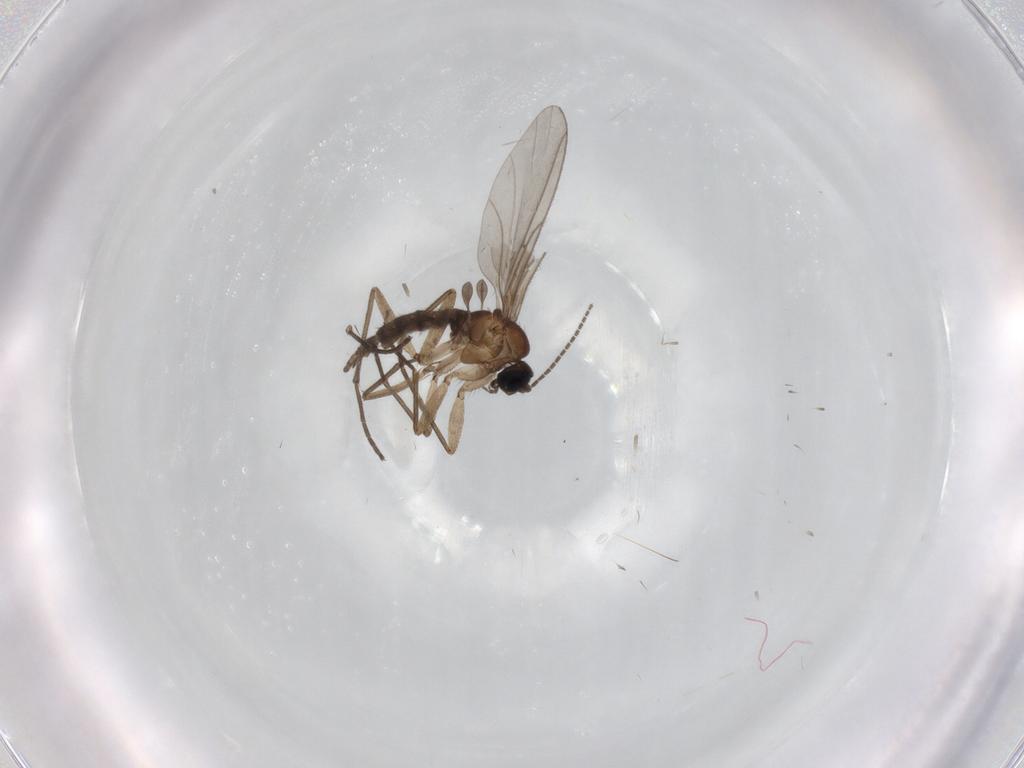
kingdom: Animalia
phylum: Arthropoda
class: Insecta
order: Diptera
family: Sciaridae
